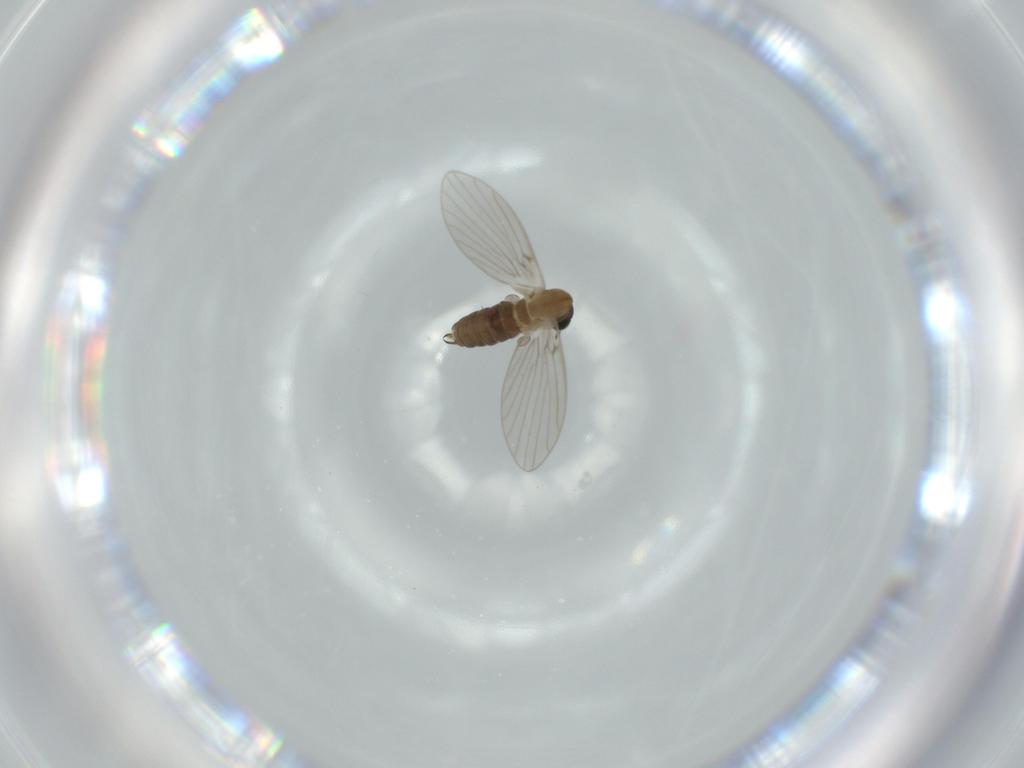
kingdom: Animalia
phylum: Arthropoda
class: Insecta
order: Diptera
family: Psychodidae
